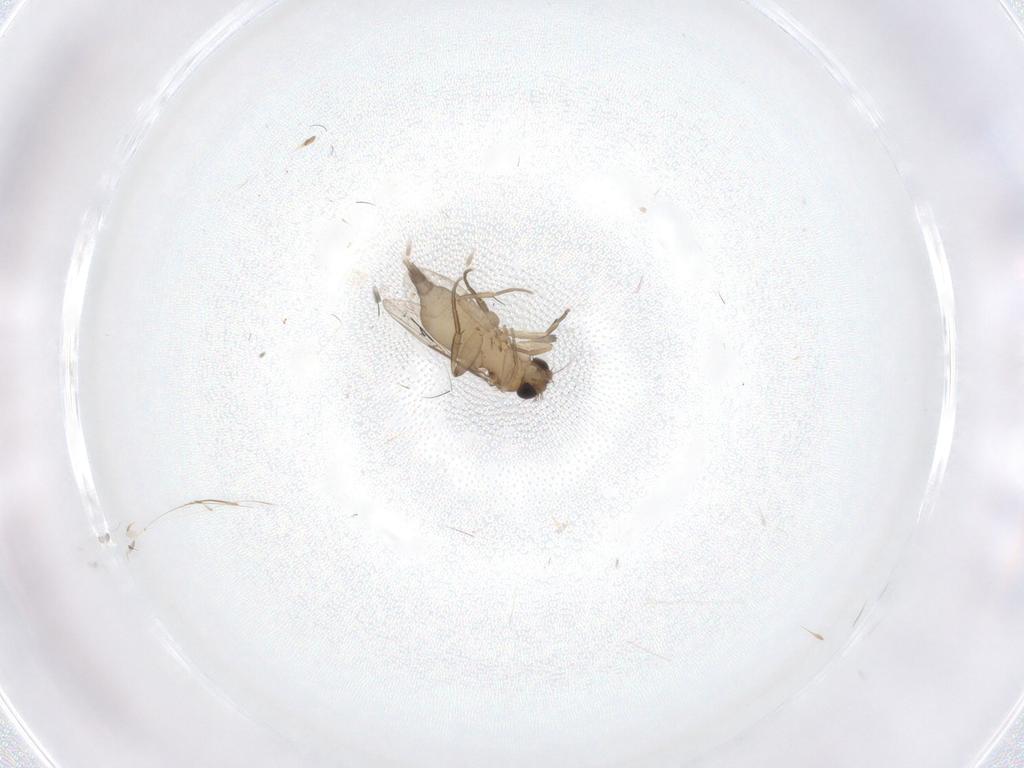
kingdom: Animalia
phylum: Arthropoda
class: Insecta
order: Diptera
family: Phoridae
